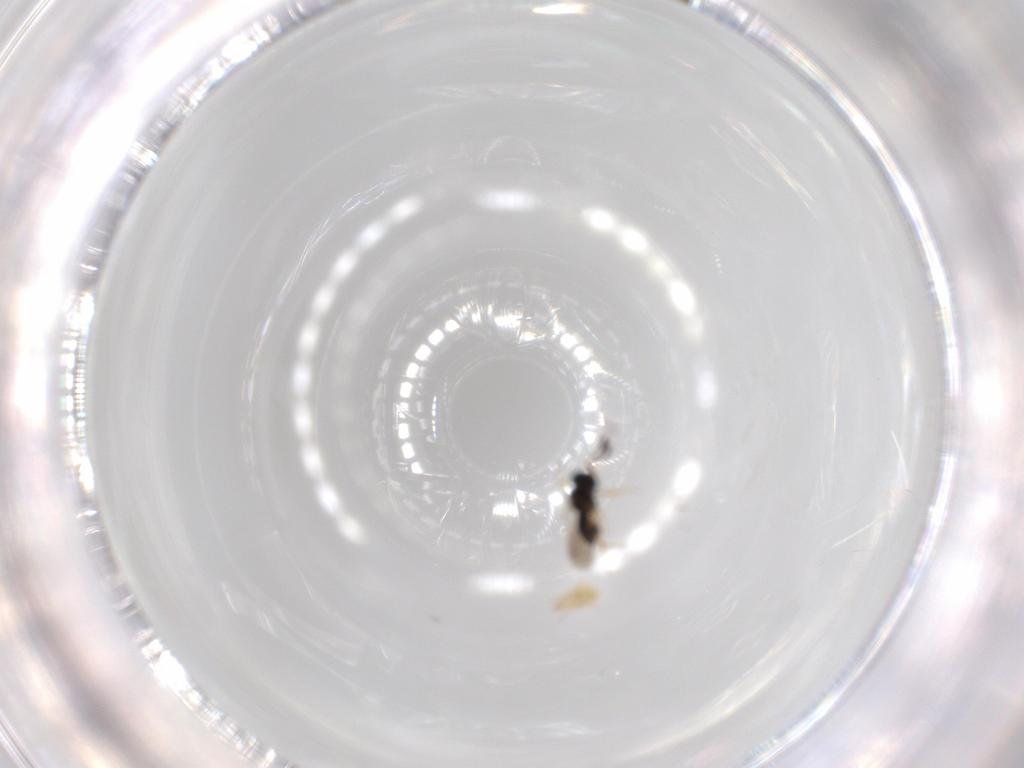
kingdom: Animalia
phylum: Arthropoda
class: Insecta
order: Hymenoptera
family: Scelionidae
